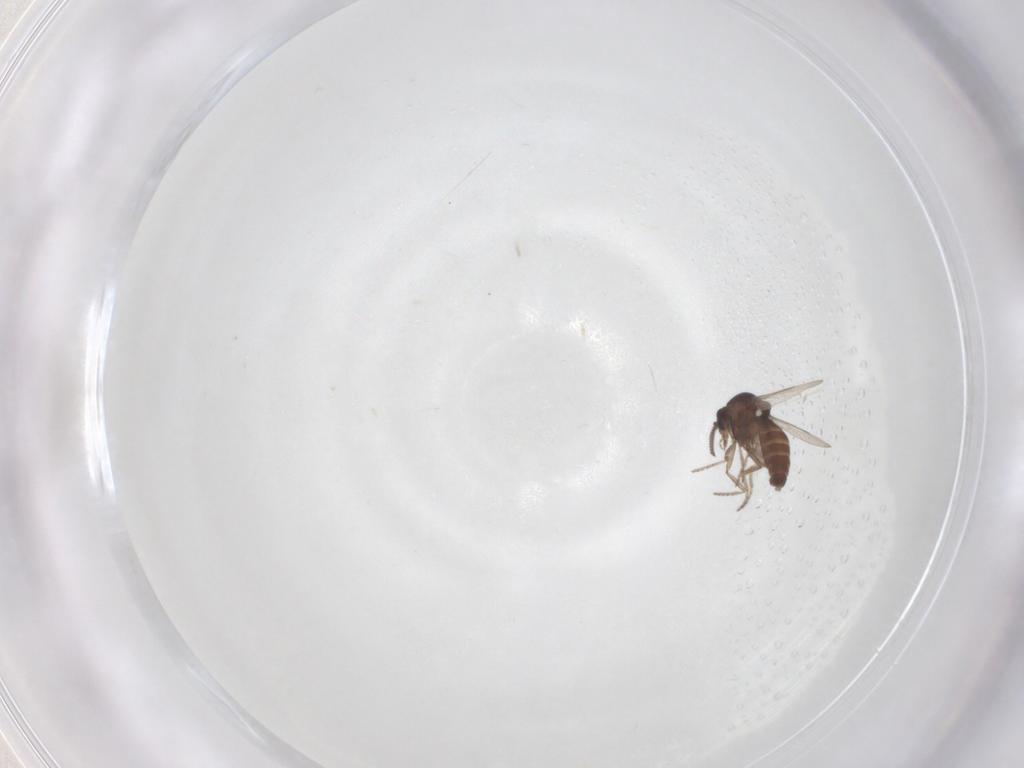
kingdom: Animalia
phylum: Arthropoda
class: Insecta
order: Diptera
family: Ceratopogonidae
